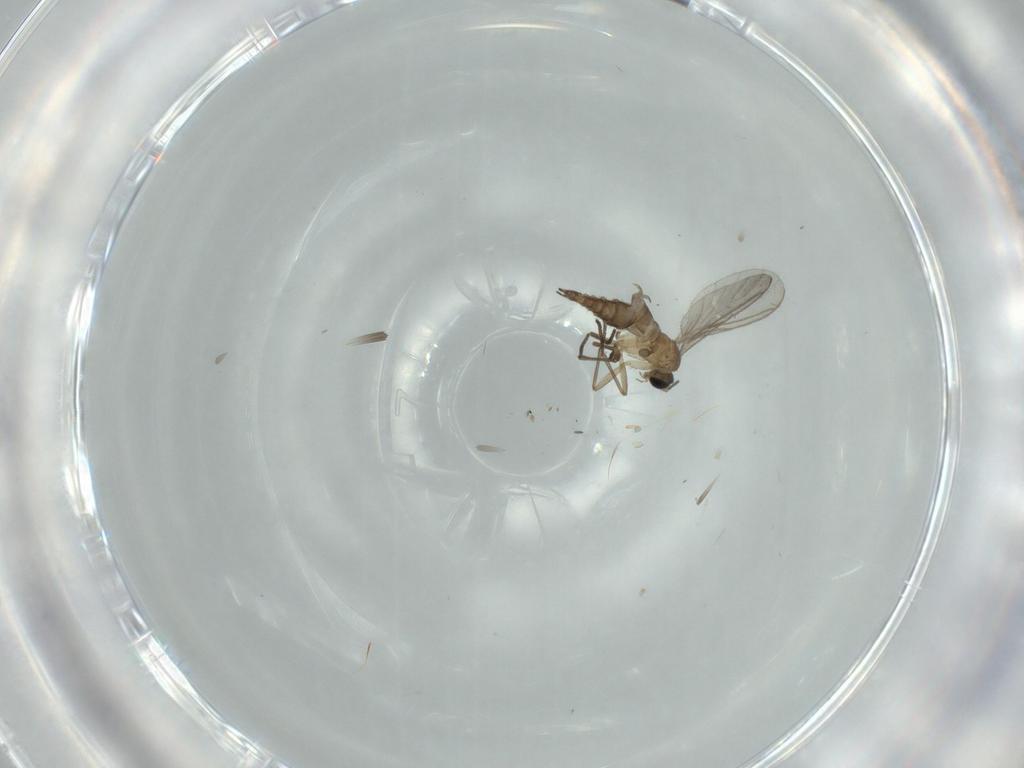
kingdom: Animalia
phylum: Arthropoda
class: Insecta
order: Diptera
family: Sciaridae
